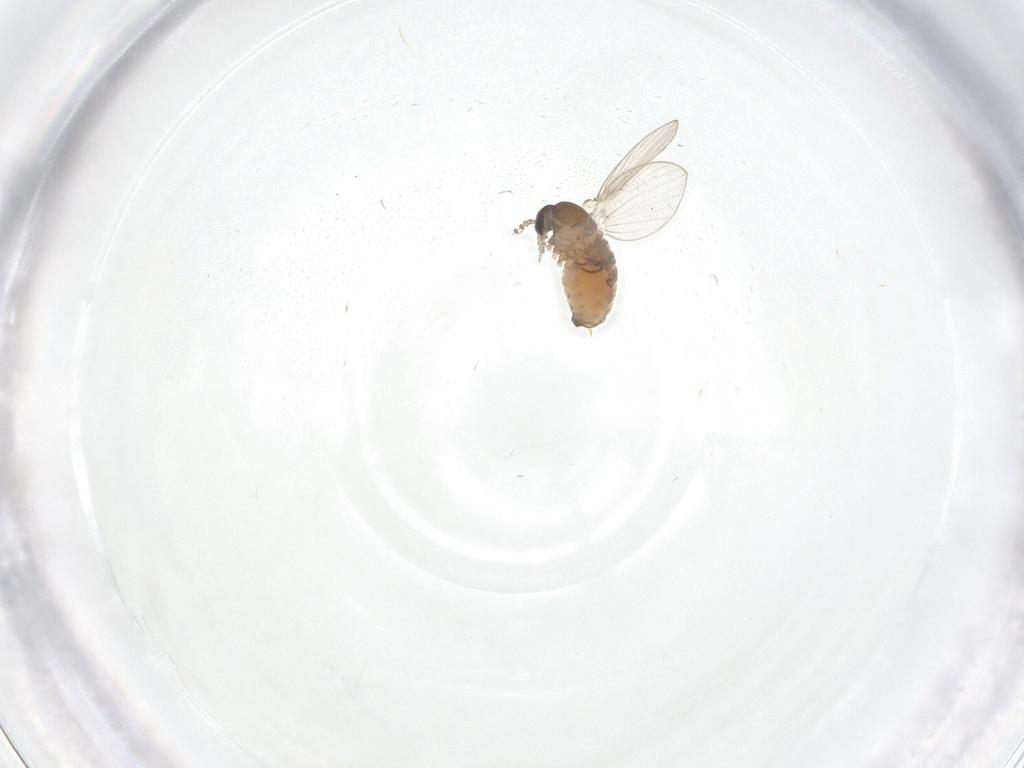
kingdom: Animalia
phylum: Arthropoda
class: Insecta
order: Diptera
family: Psychodidae
